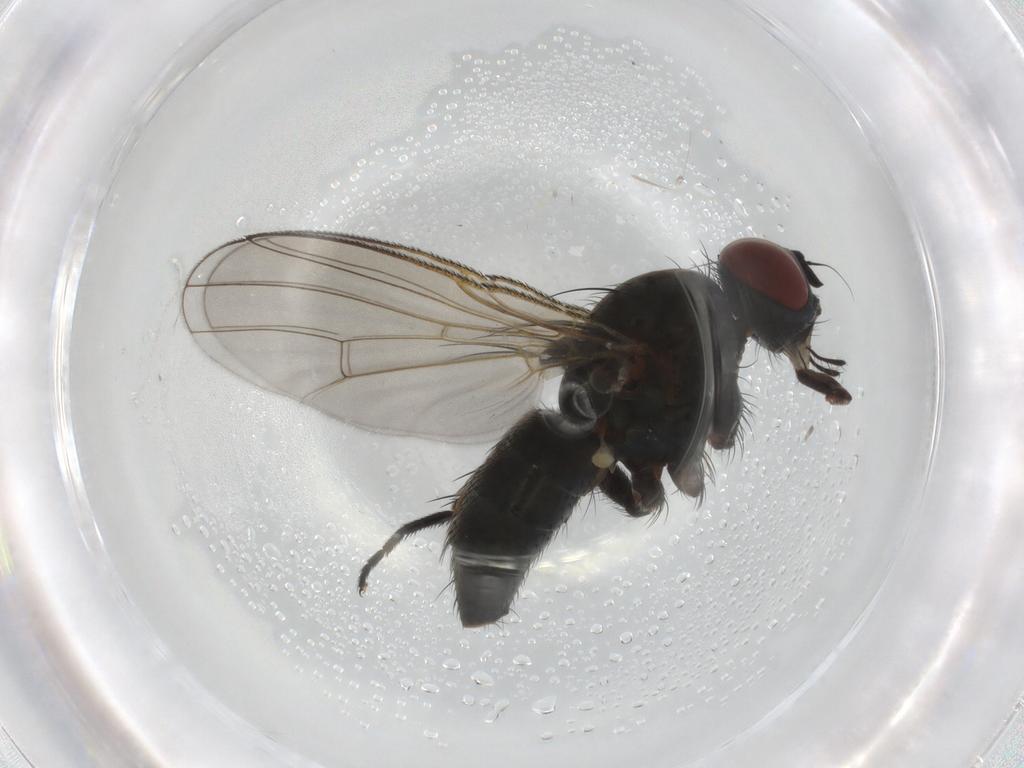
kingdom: Animalia
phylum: Arthropoda
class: Insecta
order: Diptera
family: Muscidae
